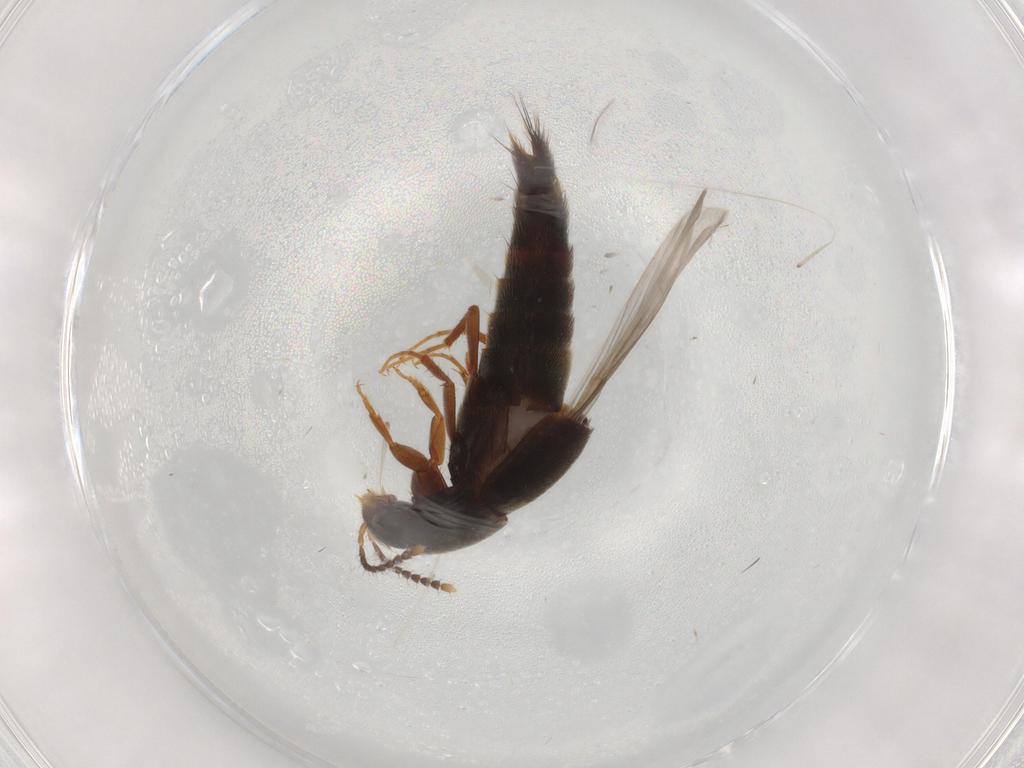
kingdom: Animalia
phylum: Arthropoda
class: Insecta
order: Coleoptera
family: Staphylinidae
